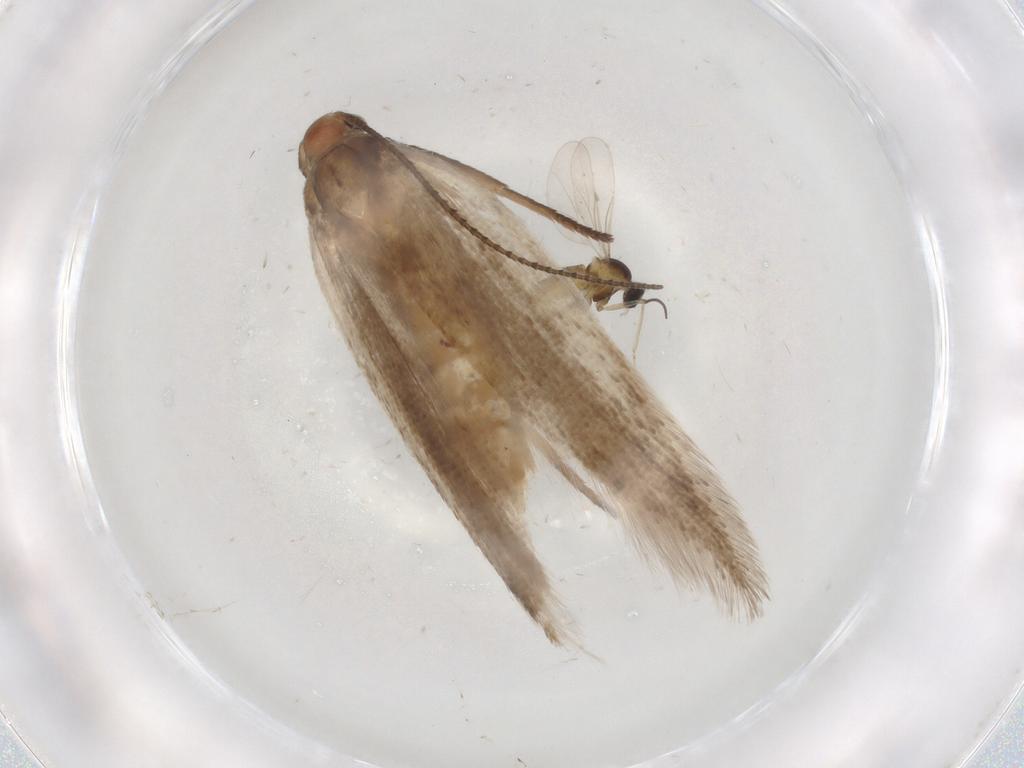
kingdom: Animalia
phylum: Arthropoda
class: Insecta
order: Lepidoptera
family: Gelechiidae
